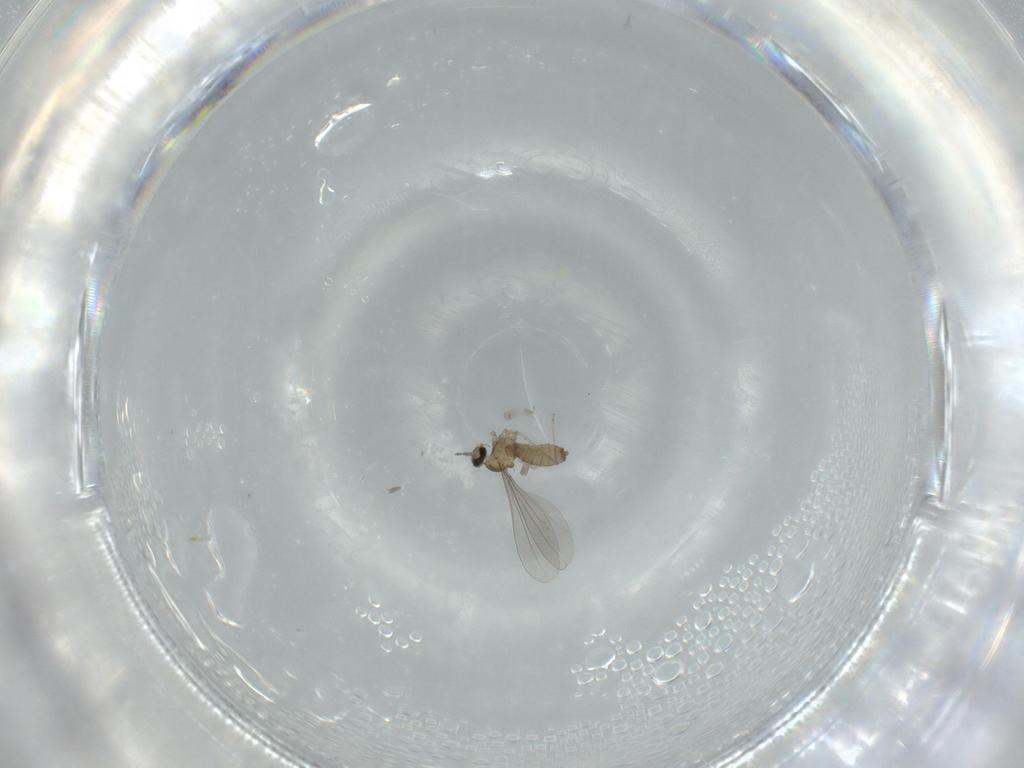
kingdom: Animalia
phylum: Arthropoda
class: Insecta
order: Diptera
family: Cecidomyiidae
